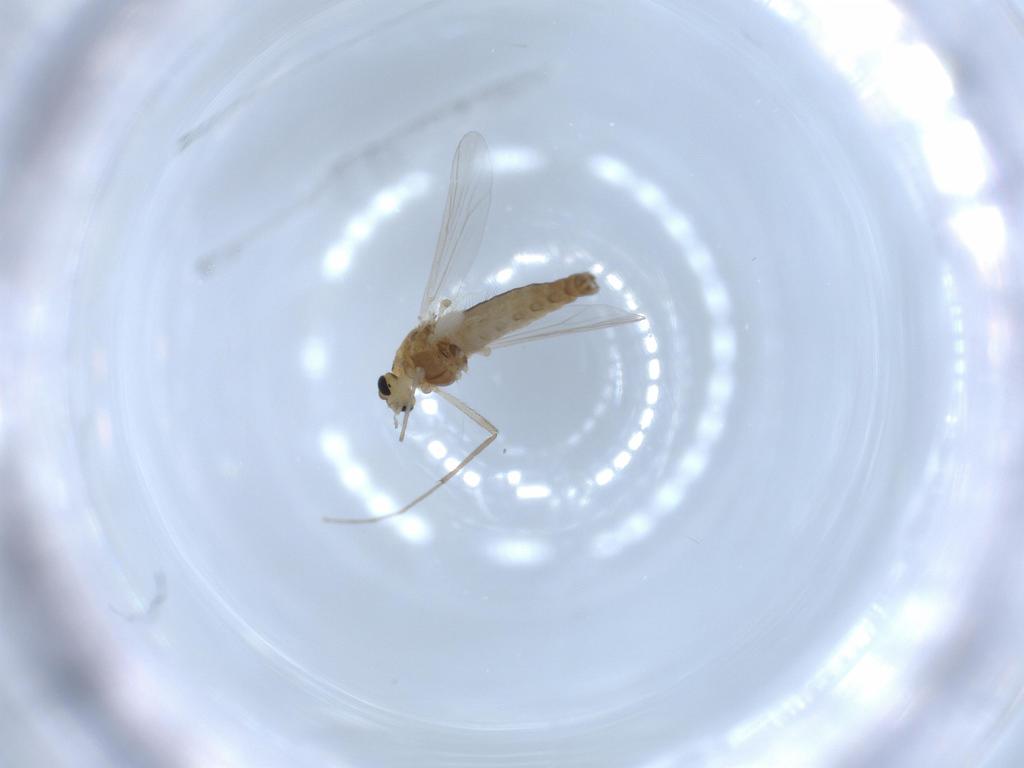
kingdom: Animalia
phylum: Arthropoda
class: Insecta
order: Diptera
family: Chironomidae
